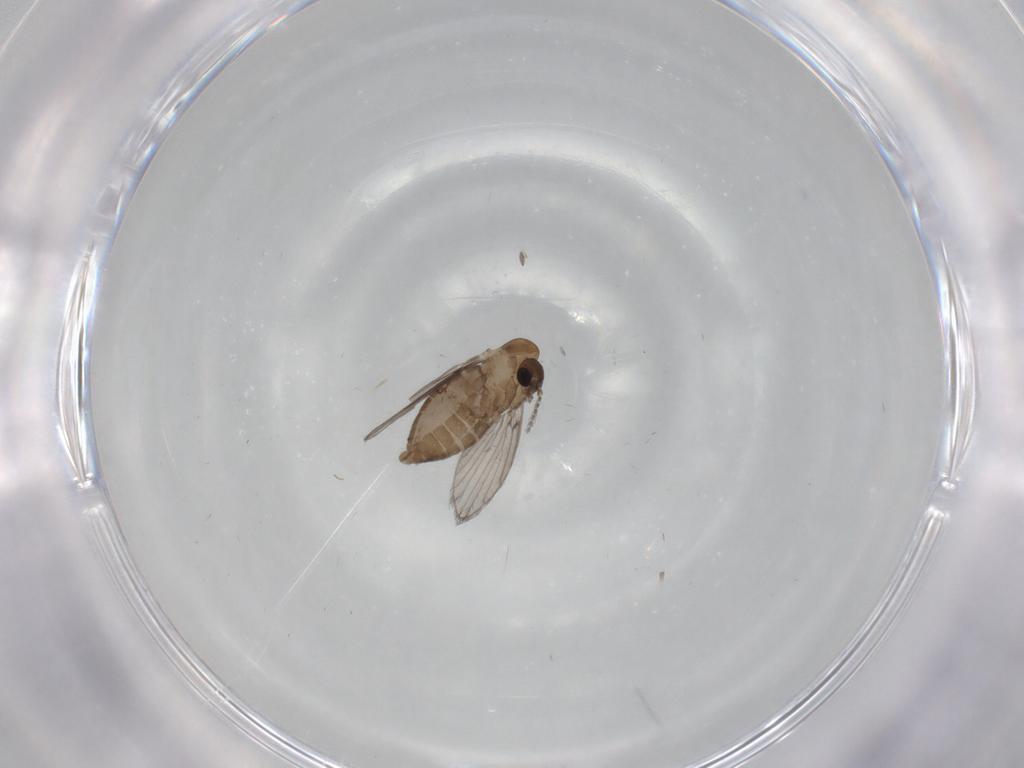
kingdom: Animalia
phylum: Arthropoda
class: Insecta
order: Diptera
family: Psychodidae
